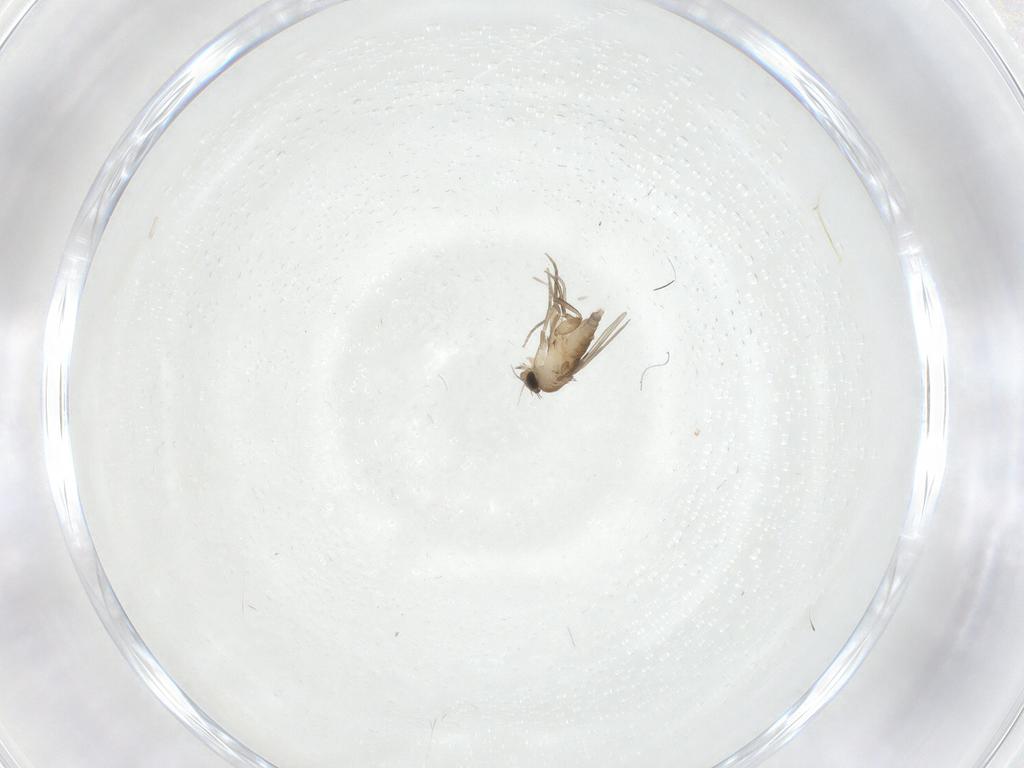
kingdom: Animalia
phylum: Arthropoda
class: Insecta
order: Diptera
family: Phoridae
